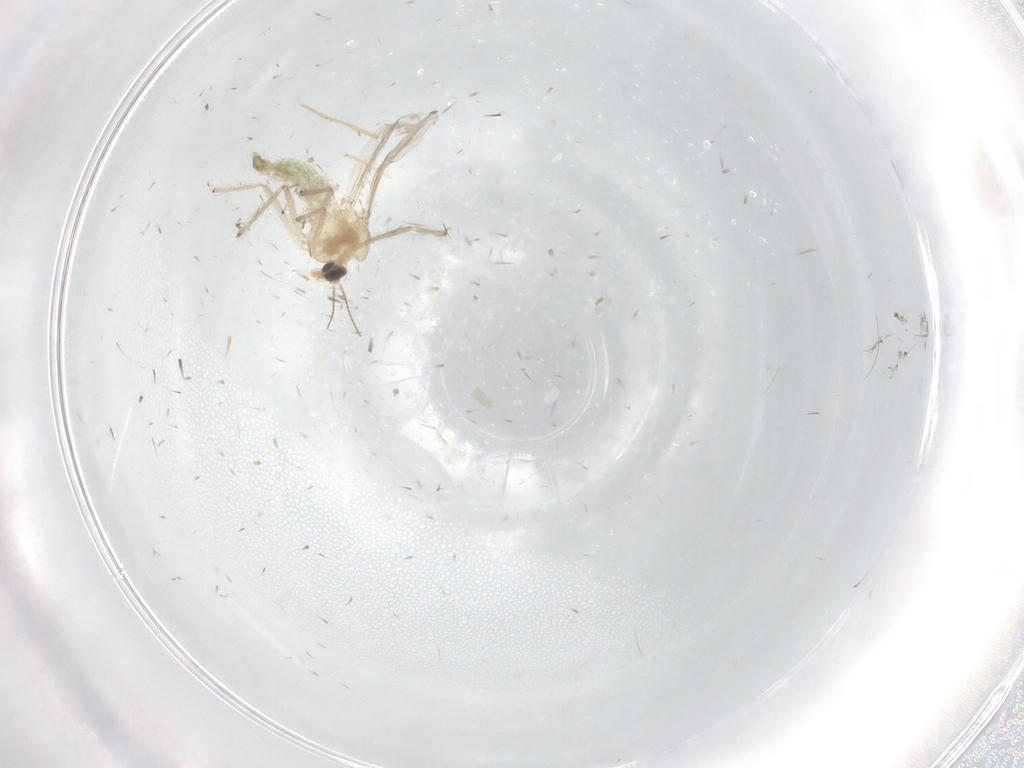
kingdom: Animalia
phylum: Arthropoda
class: Insecta
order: Diptera
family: Chironomidae
